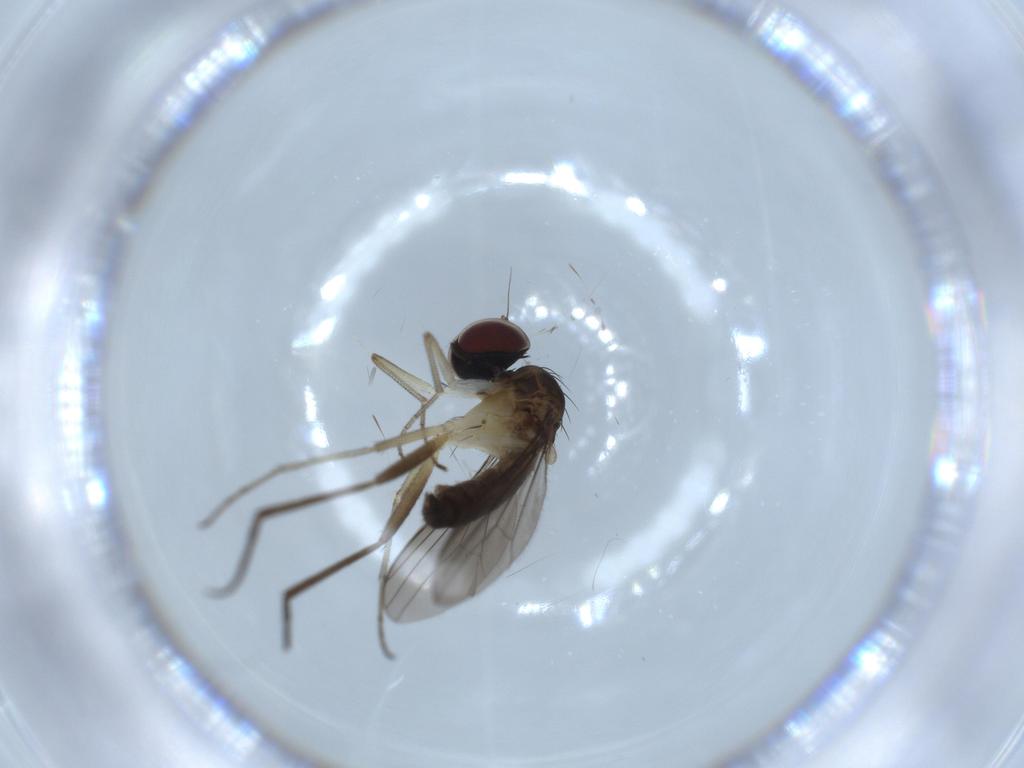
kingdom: Animalia
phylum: Arthropoda
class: Insecta
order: Diptera
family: Dolichopodidae
